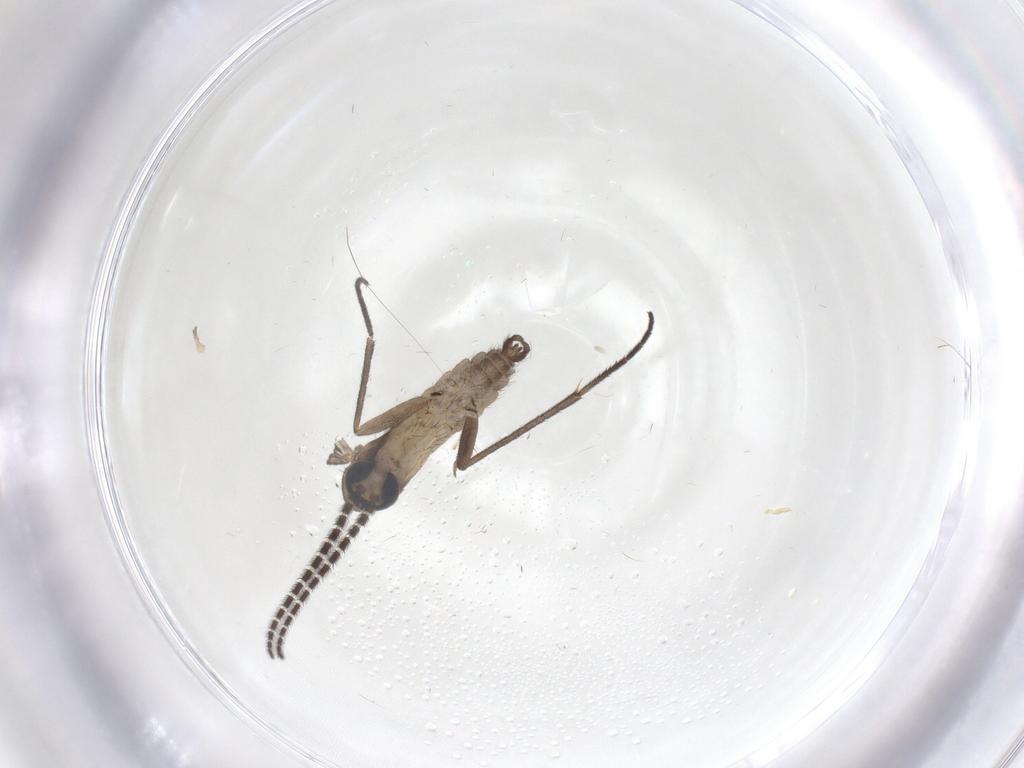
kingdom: Animalia
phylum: Arthropoda
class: Insecta
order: Diptera
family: Sciaridae
